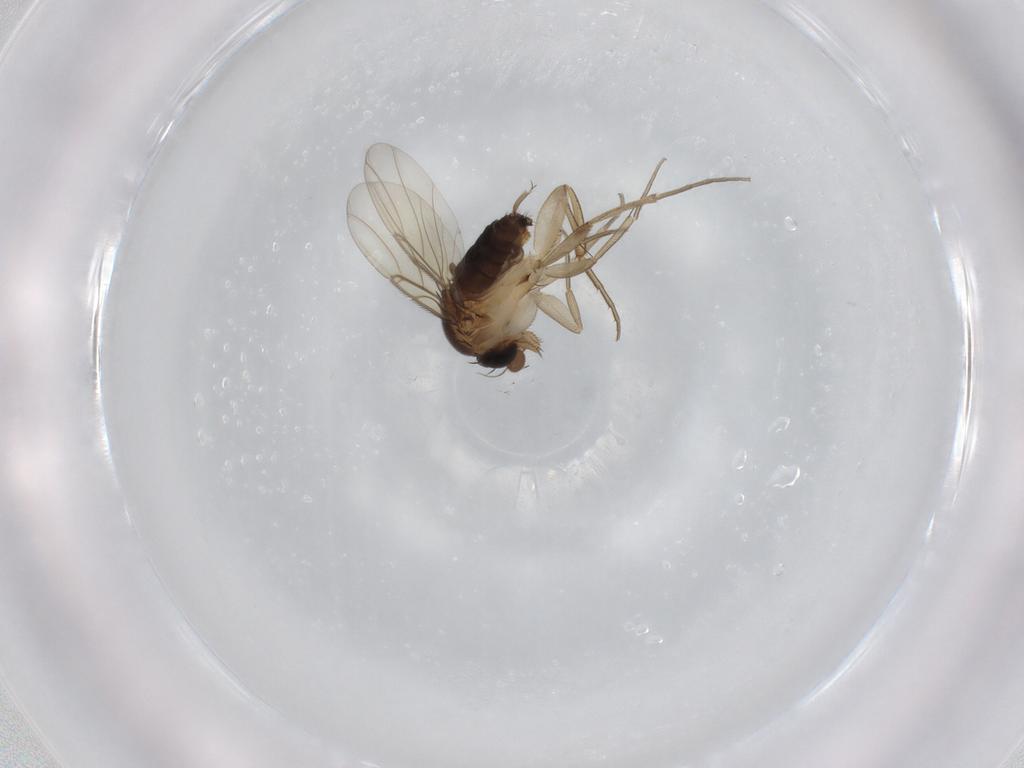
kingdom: Animalia
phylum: Arthropoda
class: Insecta
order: Diptera
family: Phoridae
